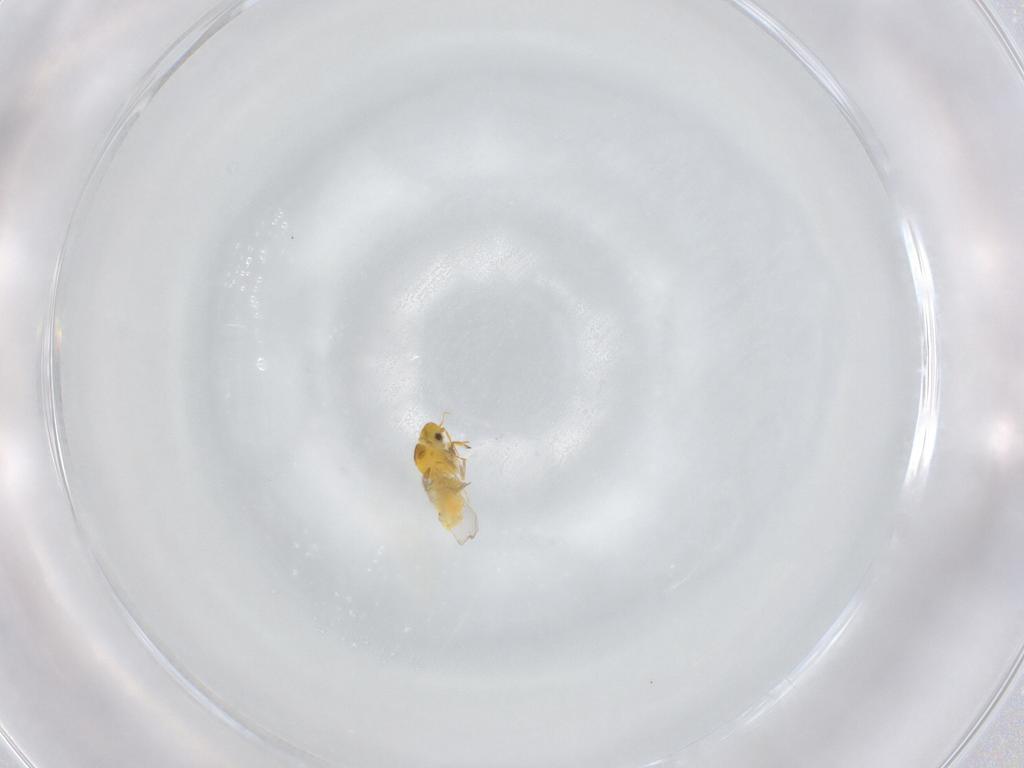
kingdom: Animalia
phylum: Arthropoda
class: Insecta
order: Hemiptera
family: Aleyrodidae
